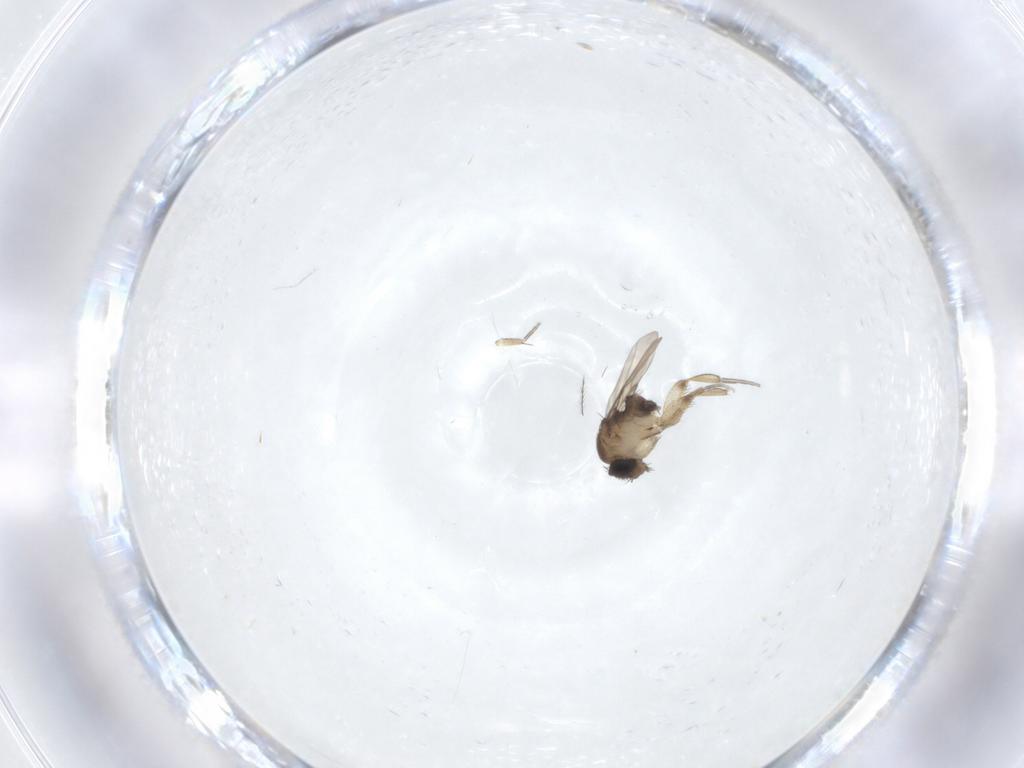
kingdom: Animalia
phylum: Arthropoda
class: Insecta
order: Diptera
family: Phoridae
